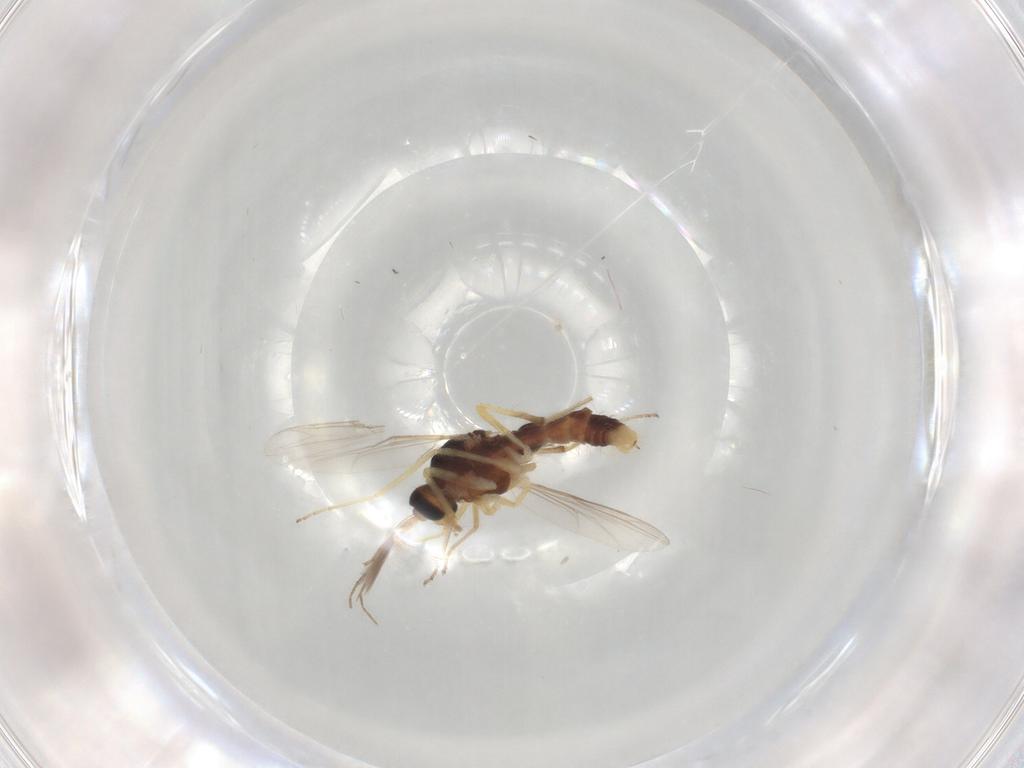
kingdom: Animalia
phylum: Arthropoda
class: Insecta
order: Diptera
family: Ceratopogonidae
